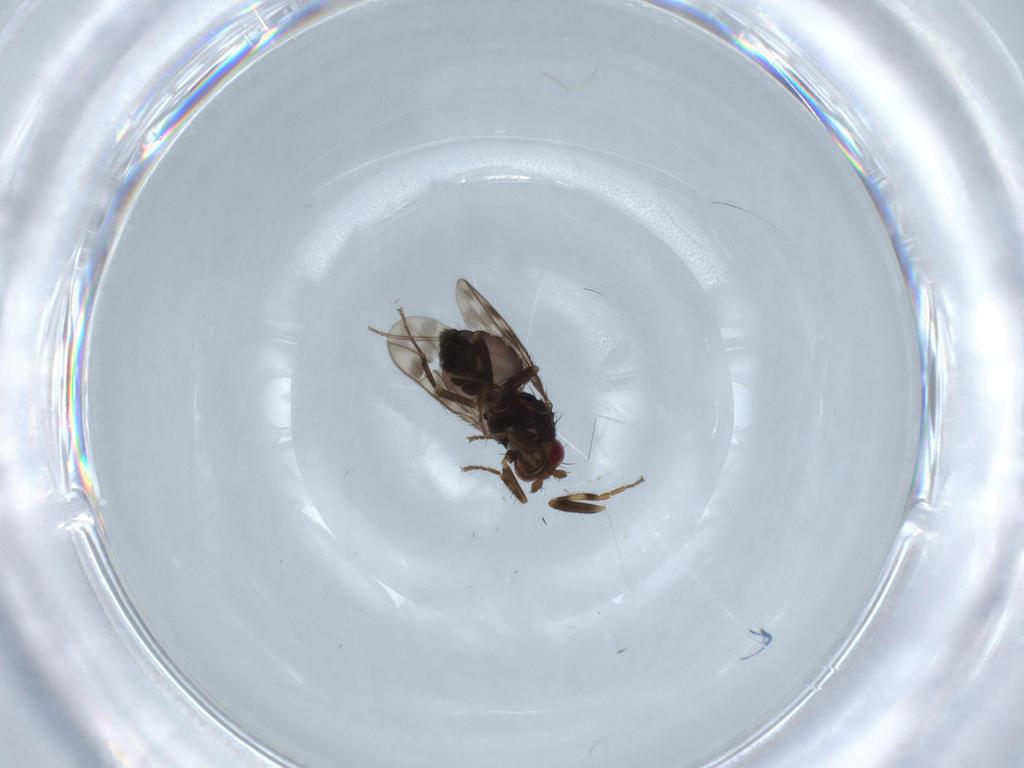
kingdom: Animalia
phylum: Arthropoda
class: Insecta
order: Diptera
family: Sphaeroceridae
